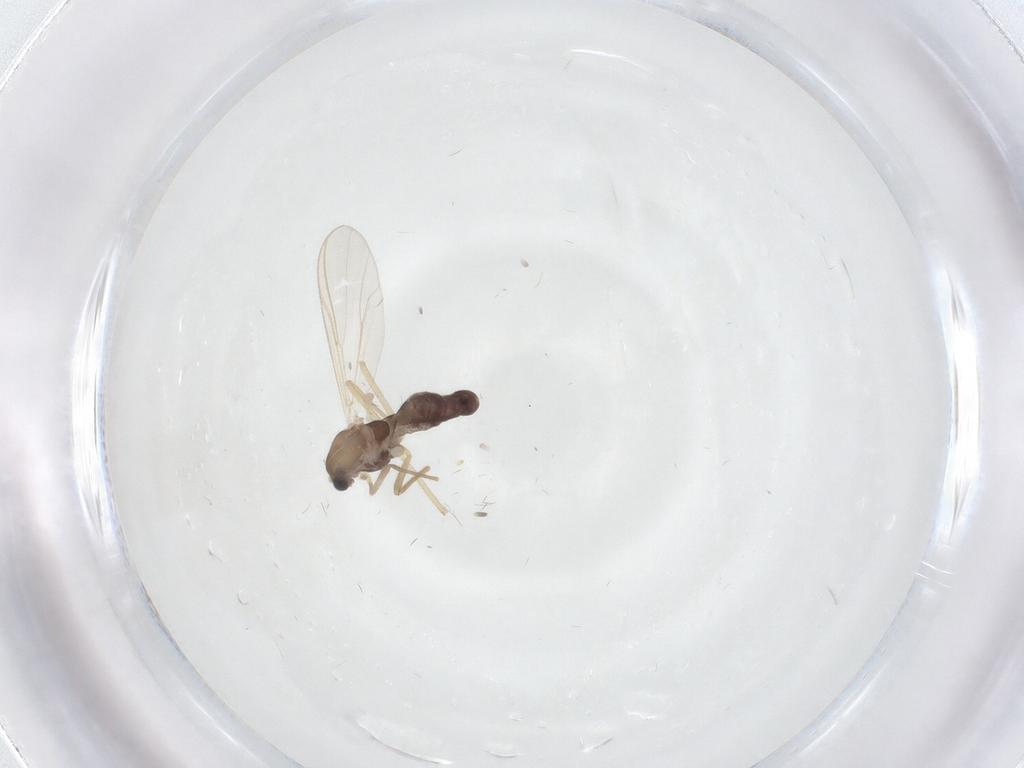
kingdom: Animalia
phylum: Arthropoda
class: Insecta
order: Diptera
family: Chironomidae
